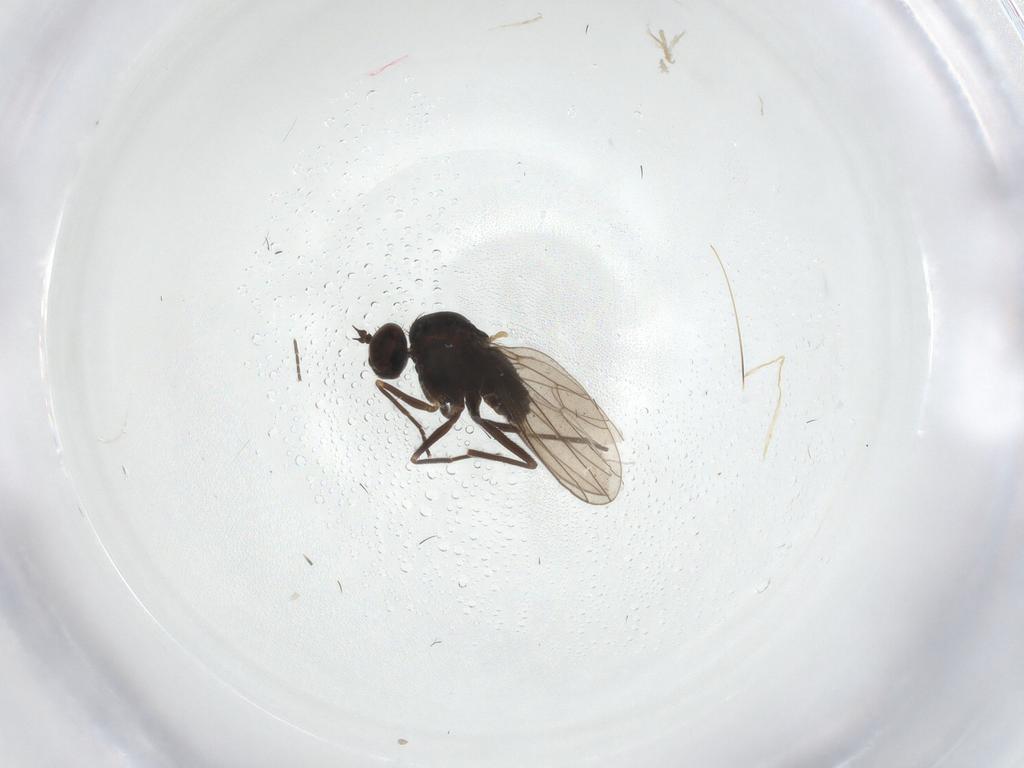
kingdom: Animalia
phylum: Arthropoda
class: Insecta
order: Diptera
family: Dolichopodidae
